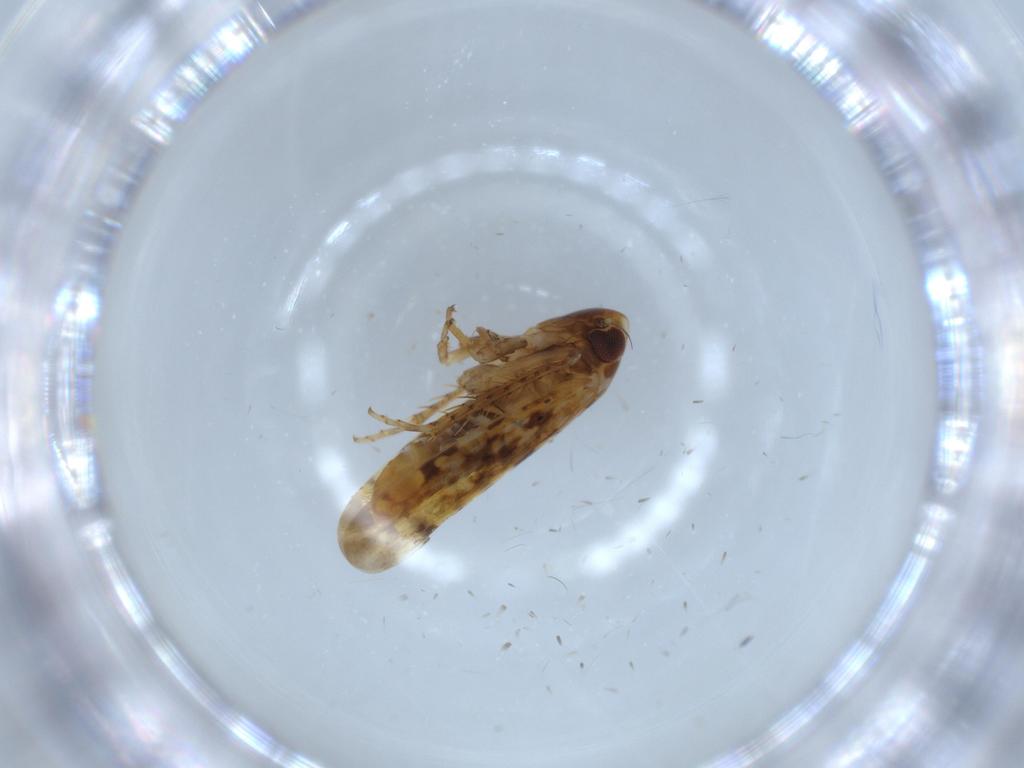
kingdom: Animalia
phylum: Arthropoda
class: Insecta
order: Hemiptera
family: Cicadellidae
